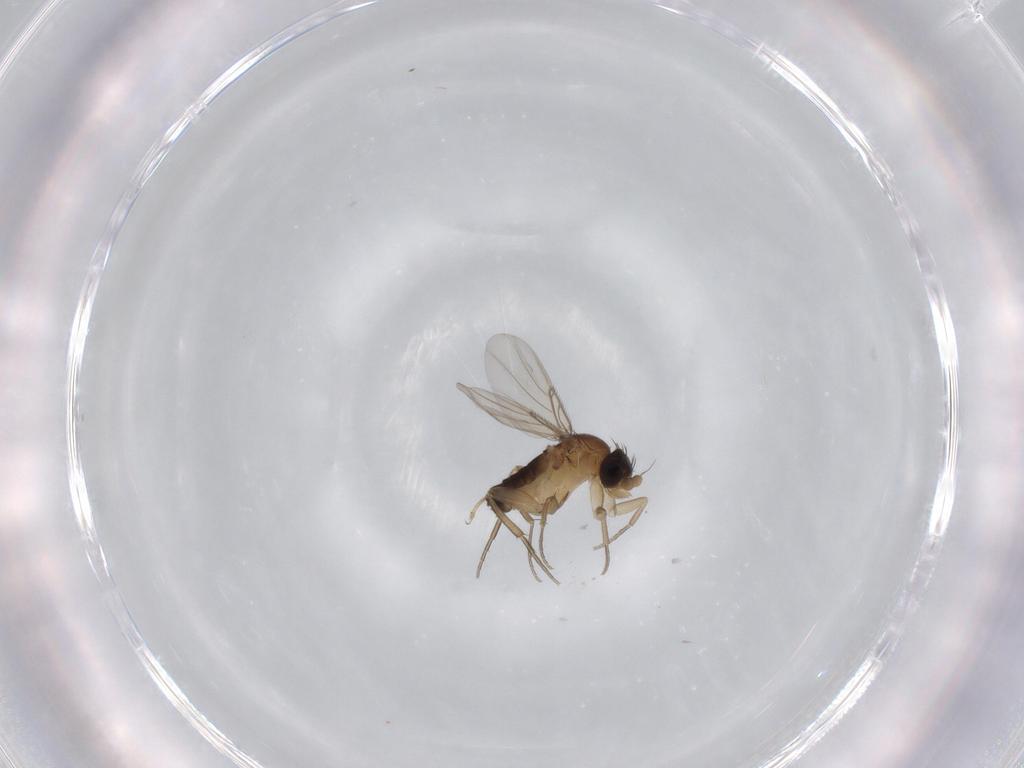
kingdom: Animalia
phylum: Arthropoda
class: Insecta
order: Diptera
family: Phoridae
